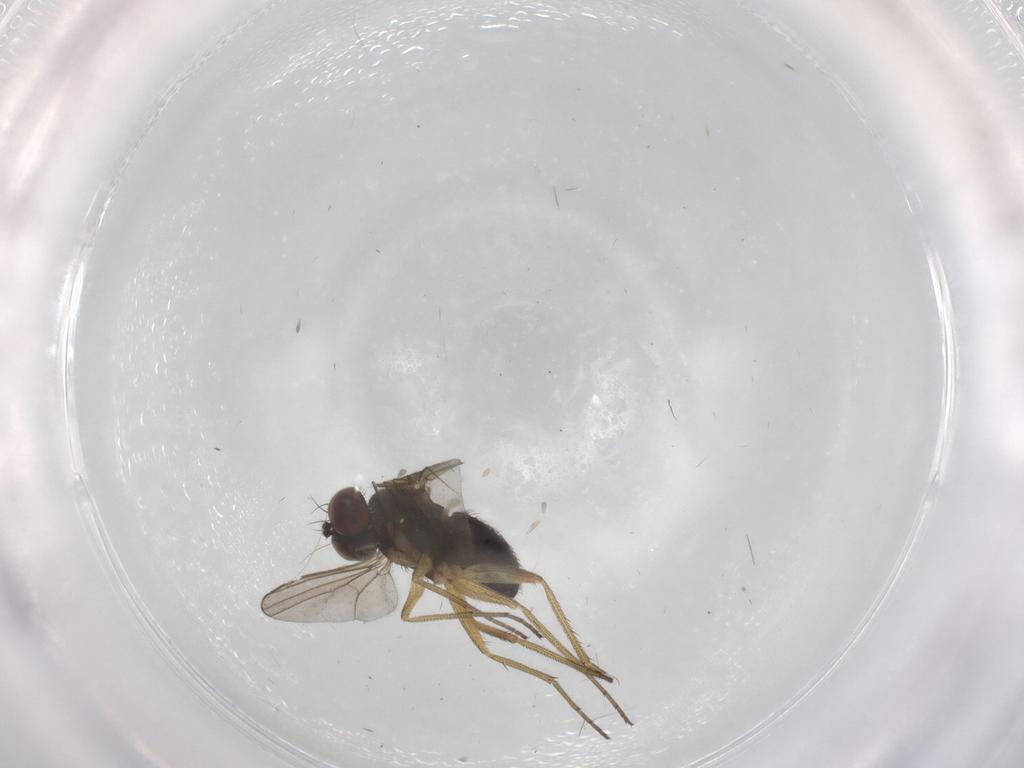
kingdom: Animalia
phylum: Arthropoda
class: Insecta
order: Diptera
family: Dolichopodidae
